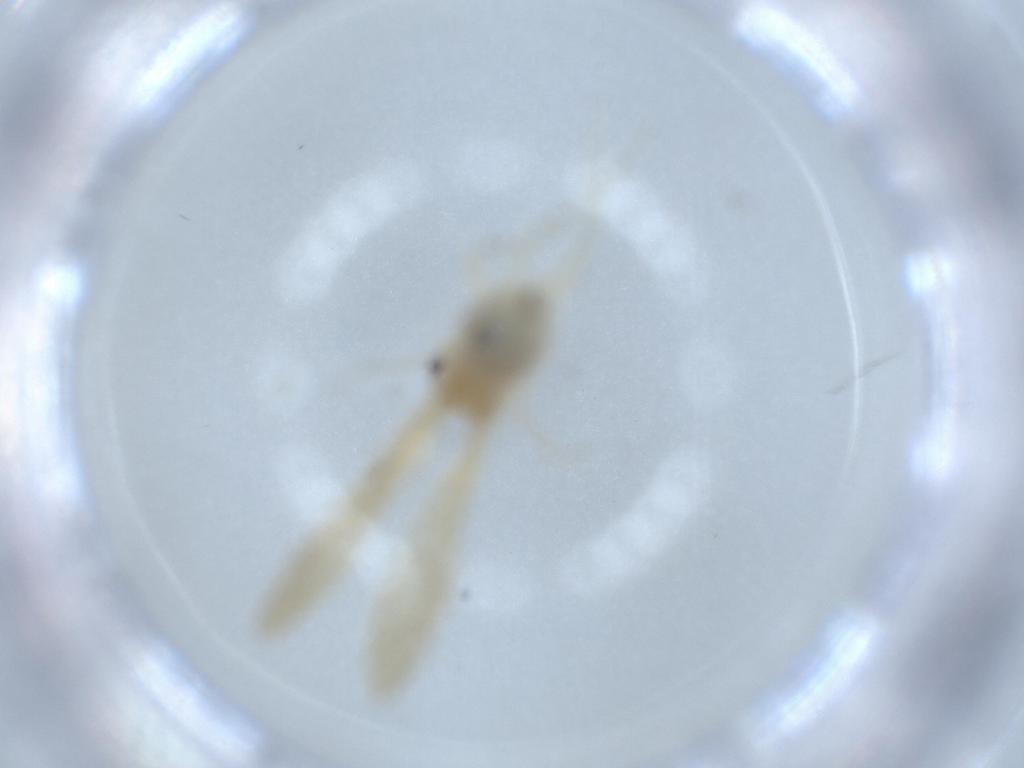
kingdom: Animalia
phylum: Arthropoda
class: Insecta
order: Psocodea
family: Caeciliusidae
